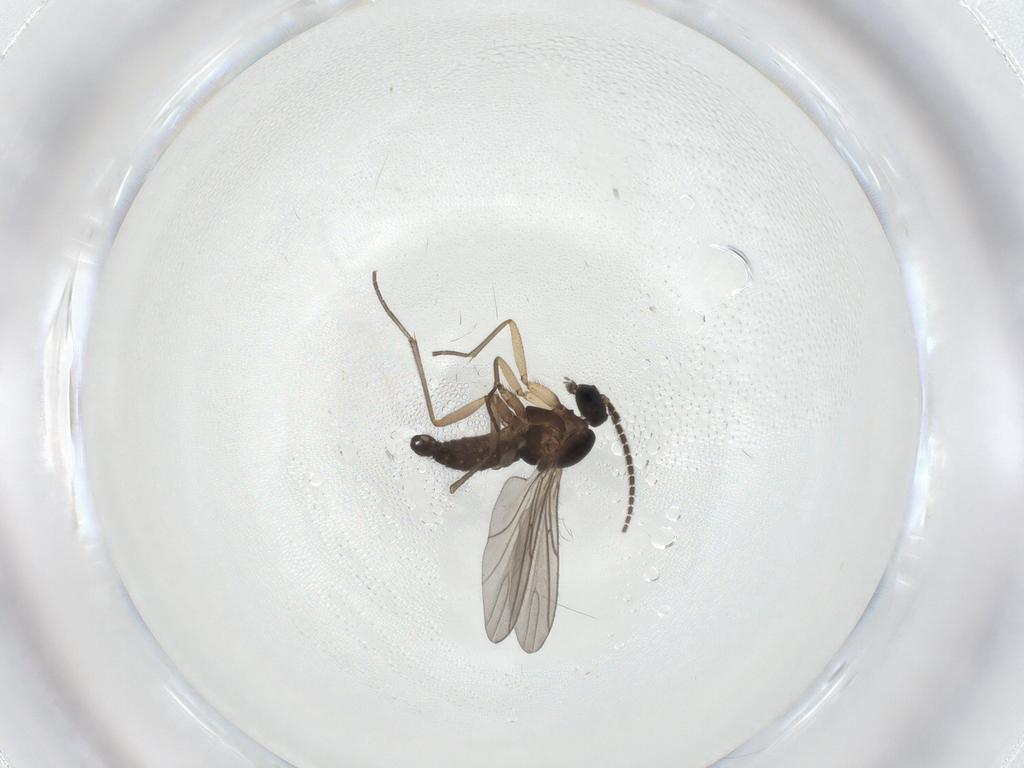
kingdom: Animalia
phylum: Arthropoda
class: Insecta
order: Diptera
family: Sciaridae
